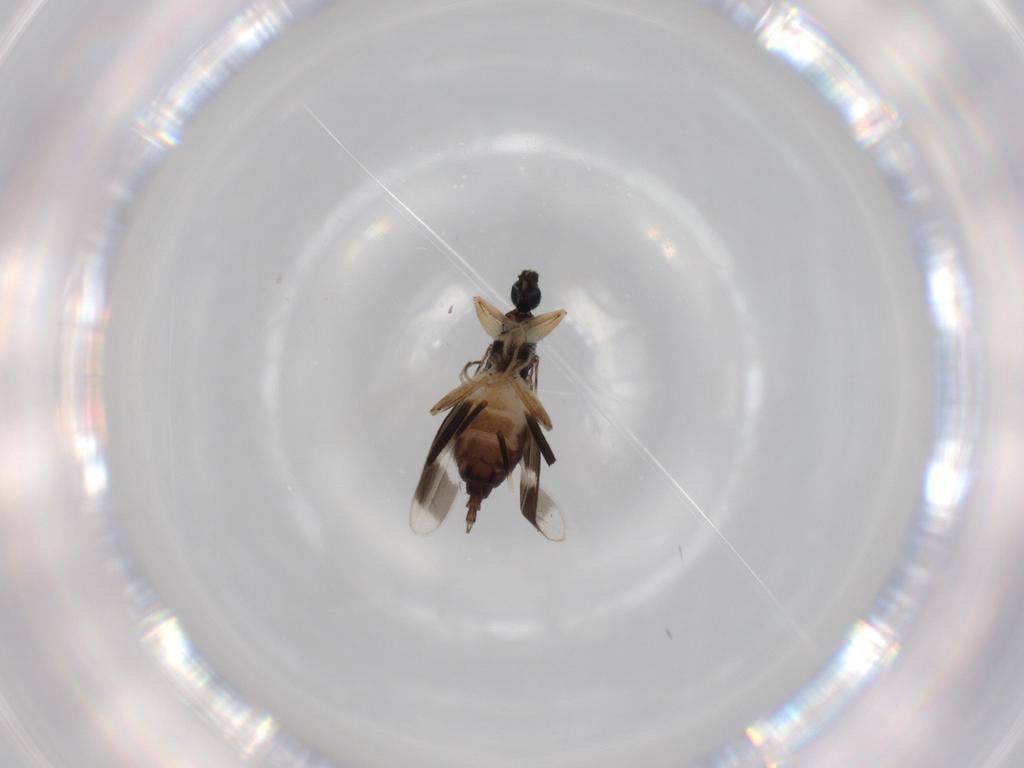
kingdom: Animalia
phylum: Arthropoda
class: Insecta
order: Diptera
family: Hybotidae
